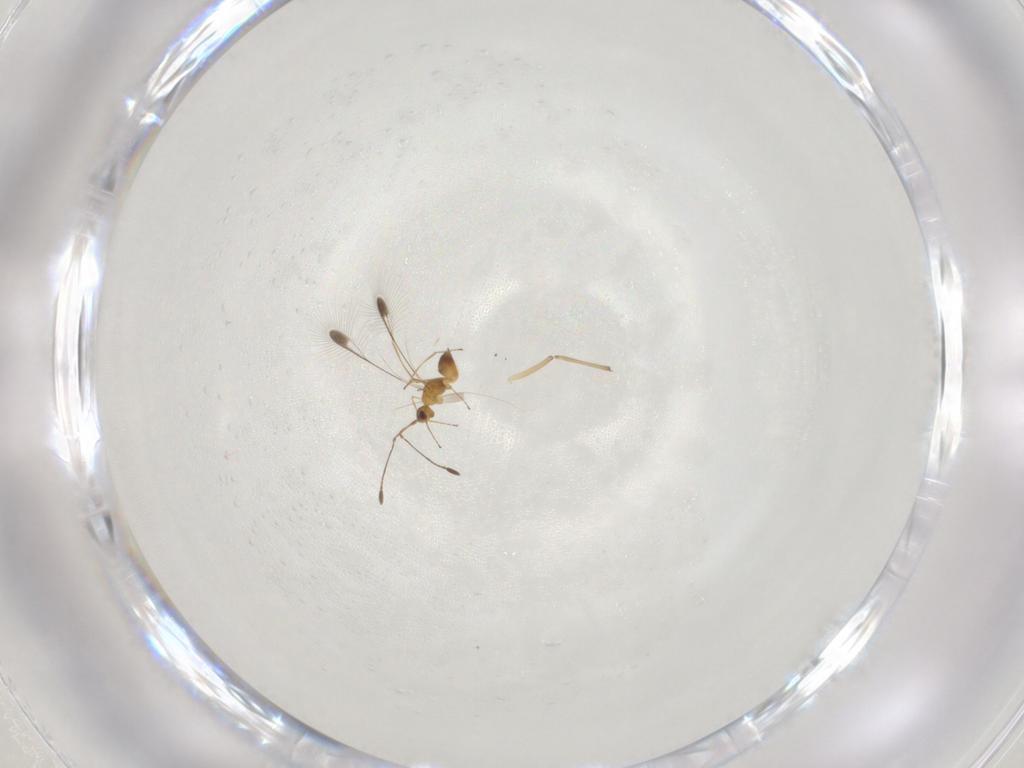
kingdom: Animalia
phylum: Arthropoda
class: Insecta
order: Hymenoptera
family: Mymaridae
